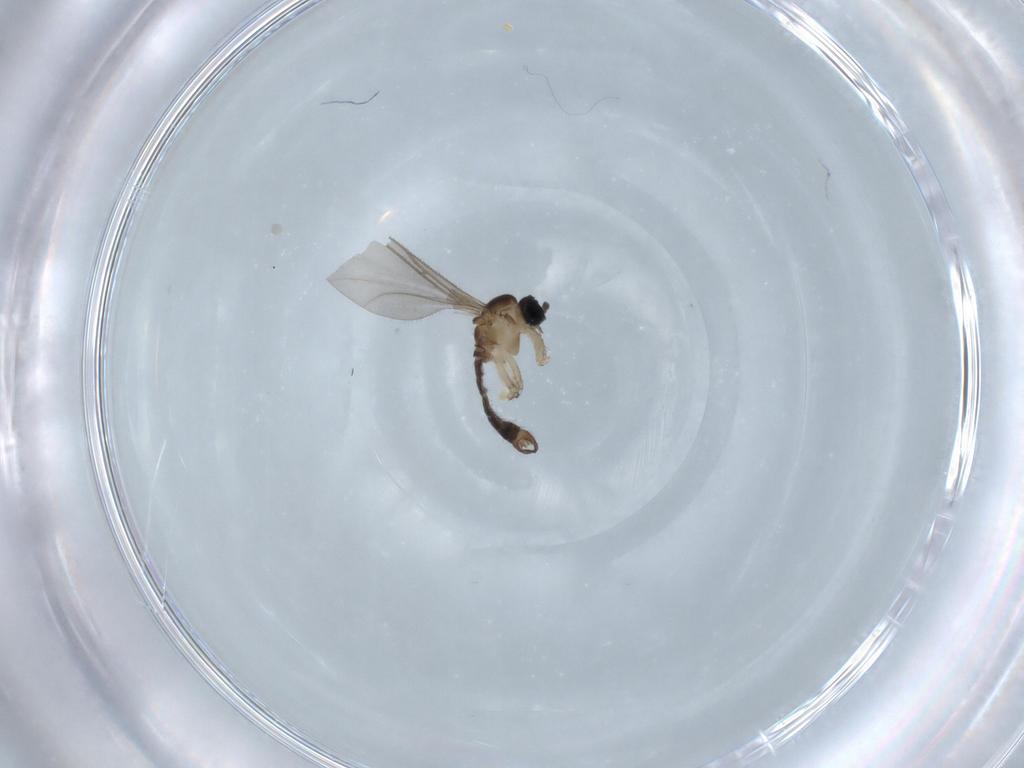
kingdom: Animalia
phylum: Arthropoda
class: Insecta
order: Diptera
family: Sciaridae
